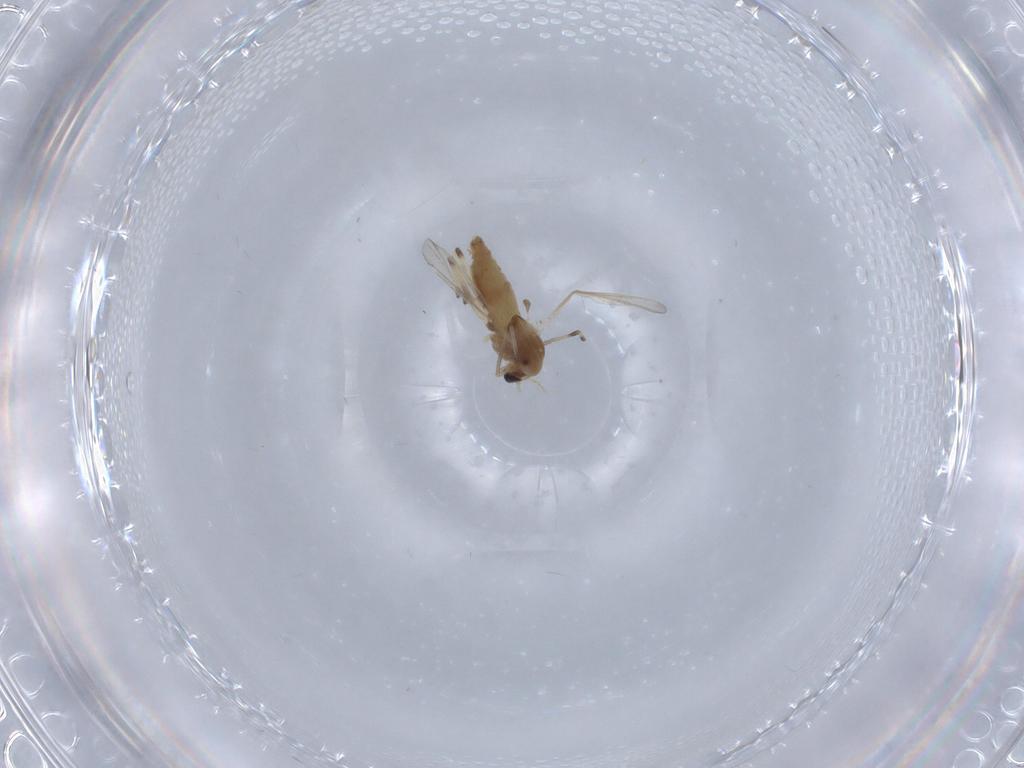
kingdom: Animalia
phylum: Arthropoda
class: Insecta
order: Diptera
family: Chironomidae
